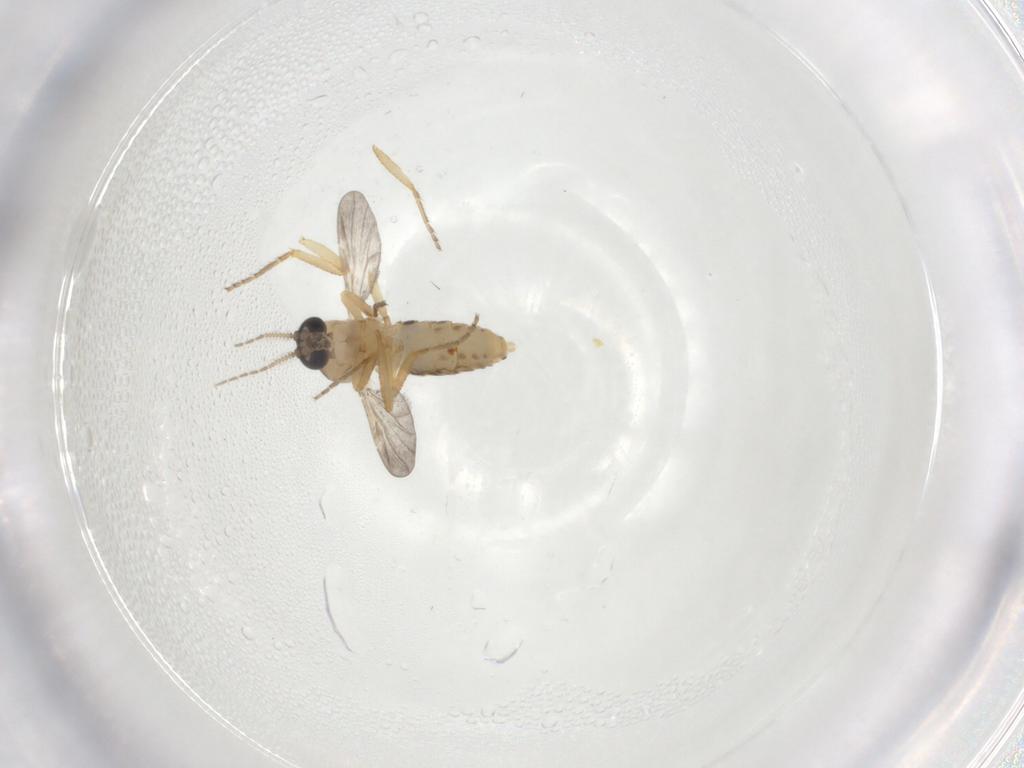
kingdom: Animalia
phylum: Arthropoda
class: Insecta
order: Diptera
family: Ceratopogonidae
